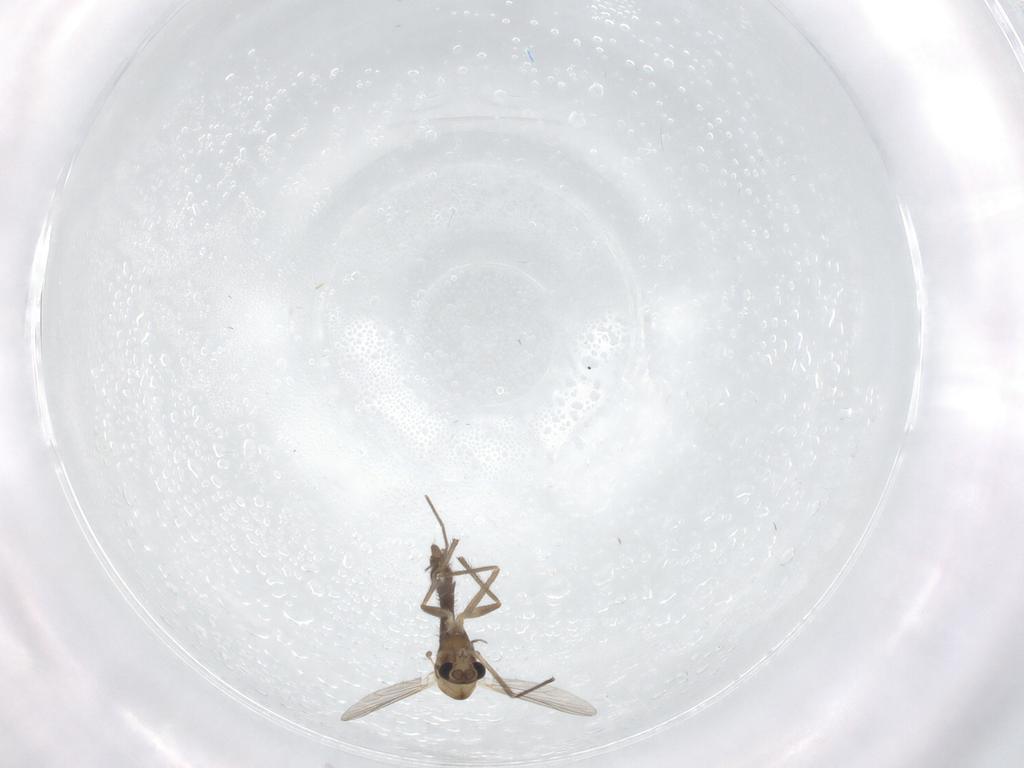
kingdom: Animalia
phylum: Arthropoda
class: Insecta
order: Diptera
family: Chironomidae
